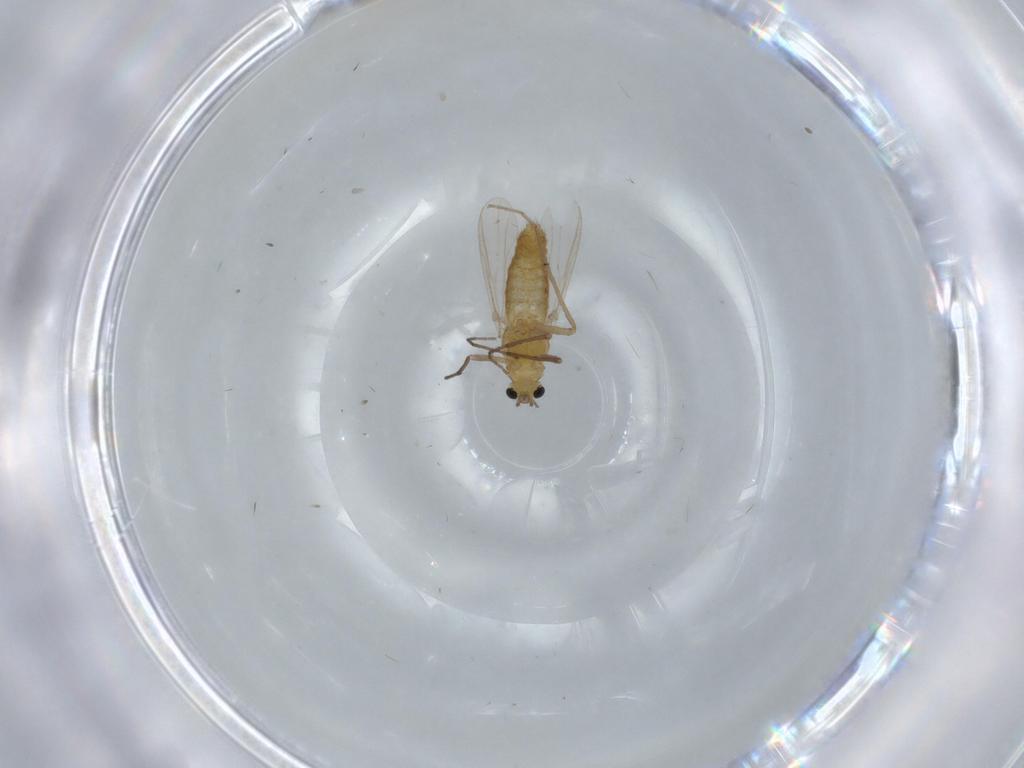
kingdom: Animalia
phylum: Arthropoda
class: Insecta
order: Diptera
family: Chironomidae
